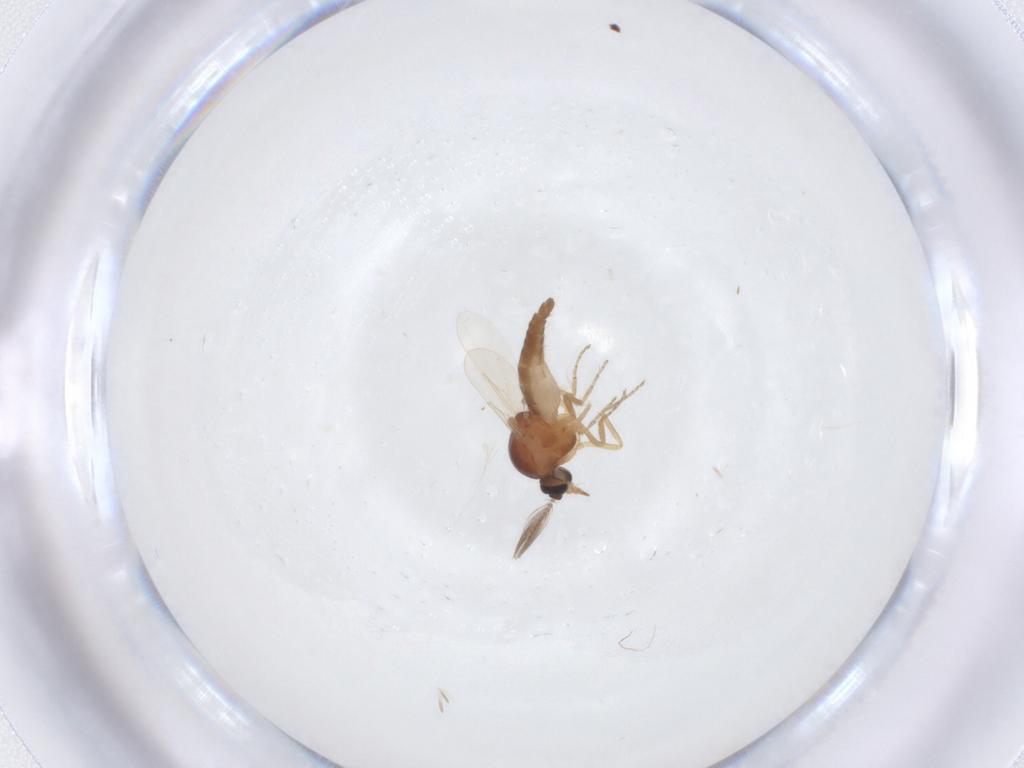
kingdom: Animalia
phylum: Arthropoda
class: Insecta
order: Diptera
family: Ceratopogonidae
